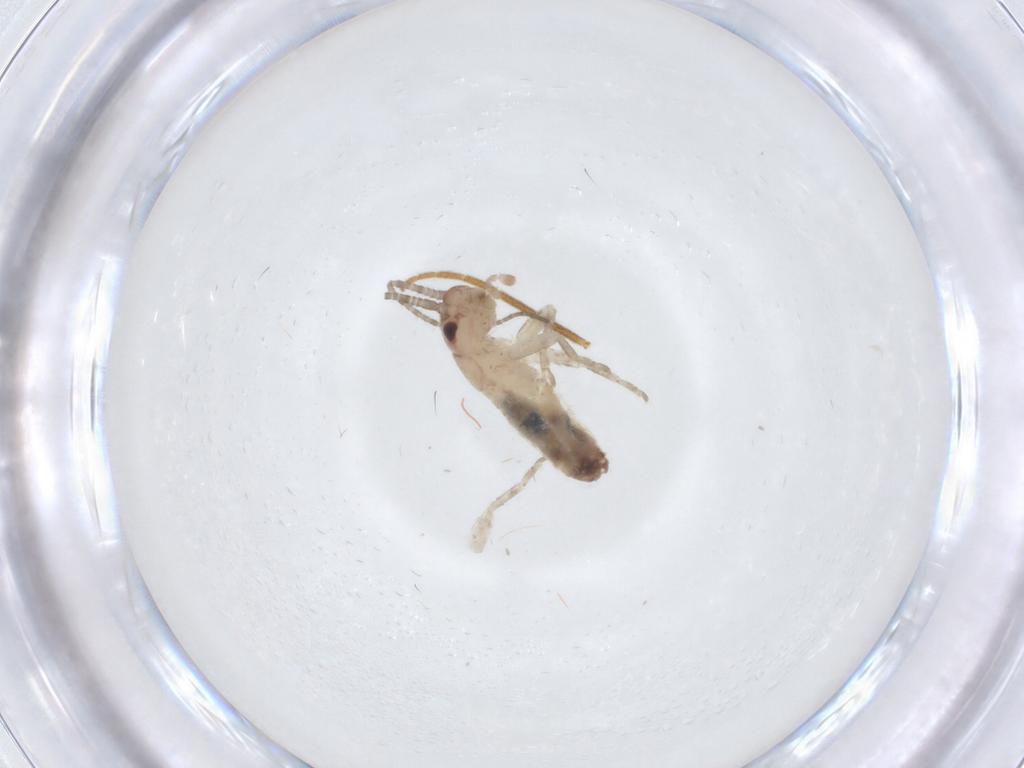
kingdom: Animalia
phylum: Arthropoda
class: Insecta
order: Orthoptera
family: Gryllidae
